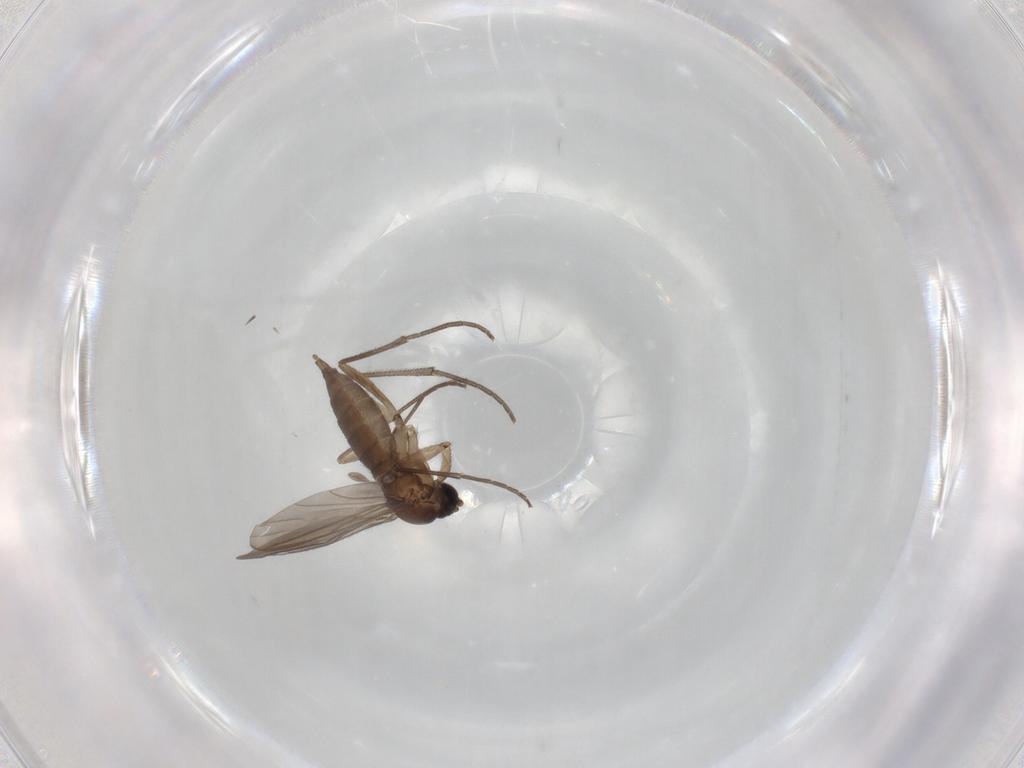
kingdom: Animalia
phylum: Arthropoda
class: Insecta
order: Diptera
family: Sciaridae
